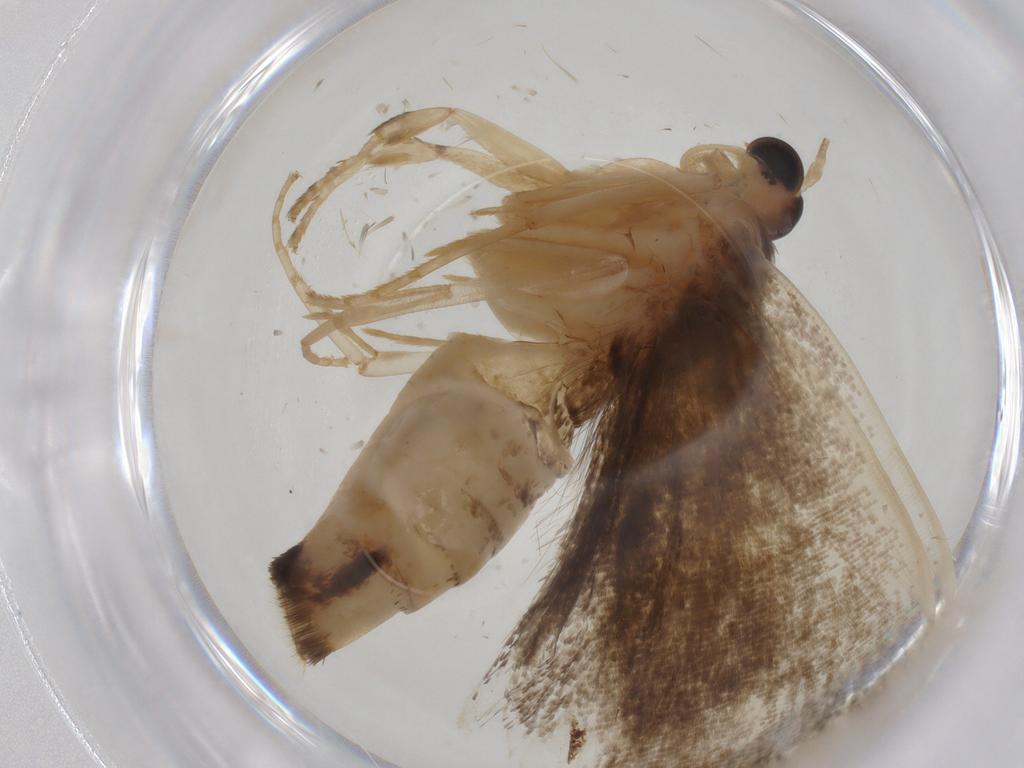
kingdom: Animalia
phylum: Arthropoda
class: Insecta
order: Lepidoptera
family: Immidae
